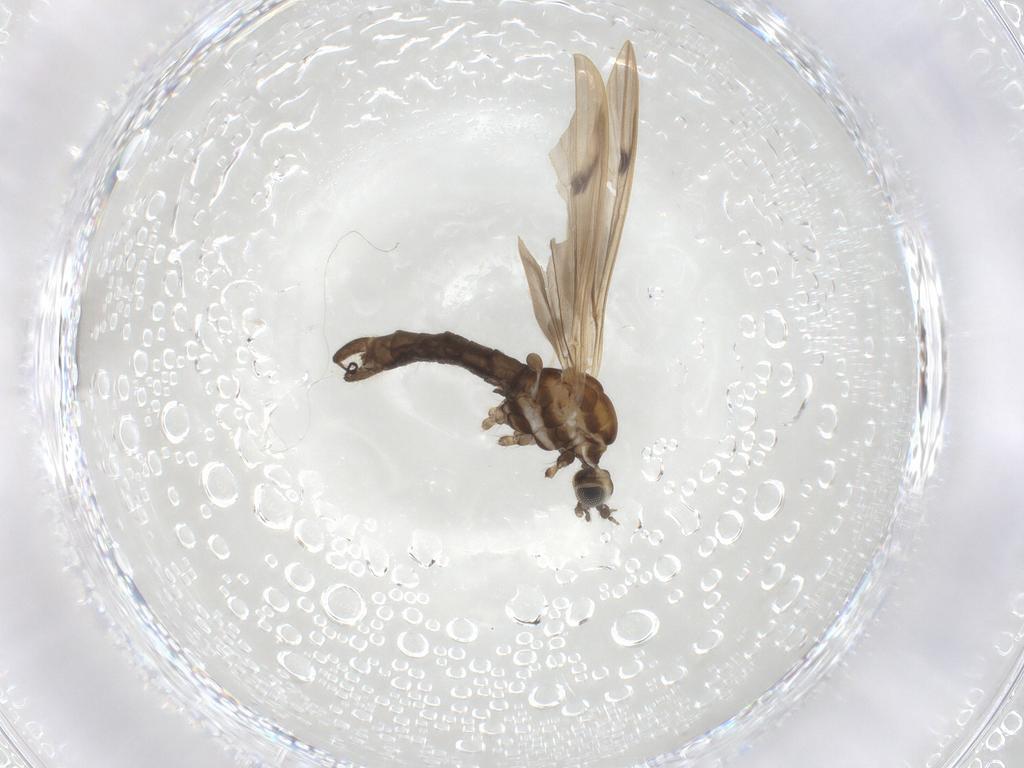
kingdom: Animalia
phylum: Arthropoda
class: Insecta
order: Diptera
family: Limoniidae
